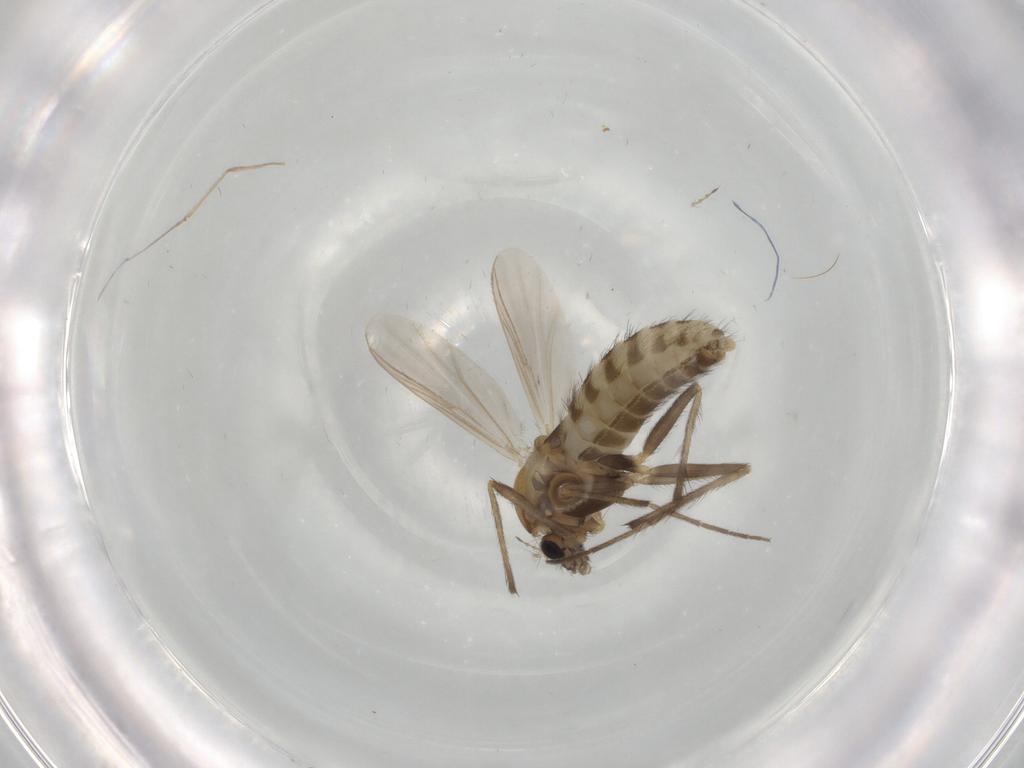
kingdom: Animalia
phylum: Arthropoda
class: Insecta
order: Diptera
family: Chironomidae
